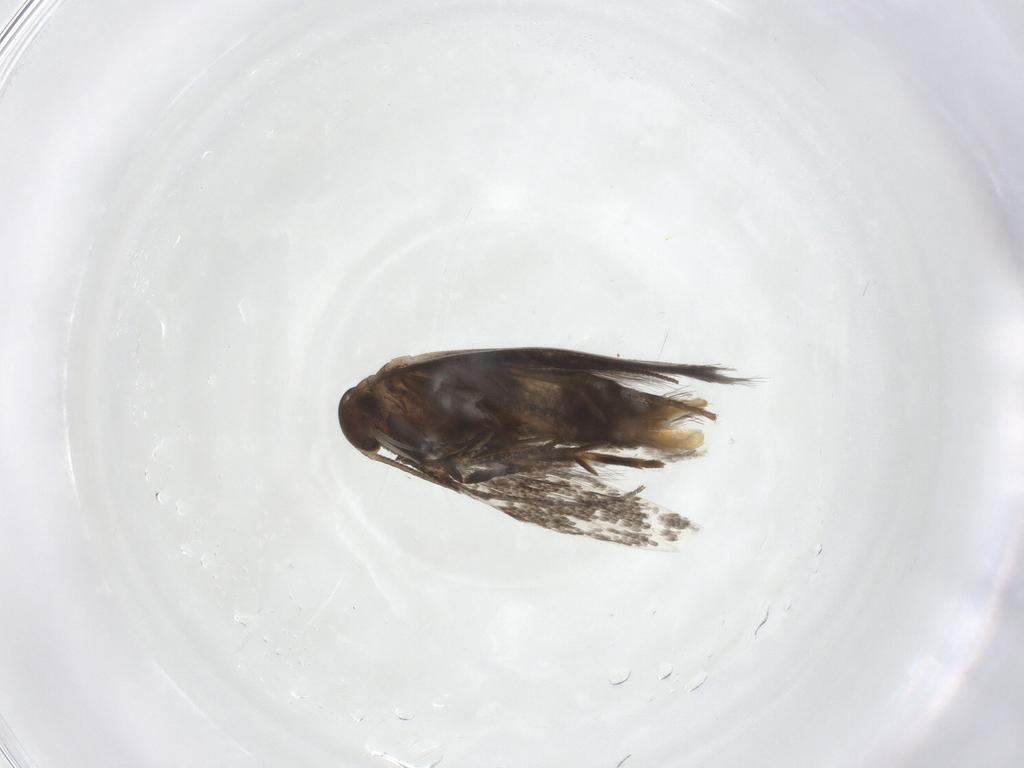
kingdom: Animalia
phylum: Arthropoda
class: Insecta
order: Lepidoptera
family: Elachistidae
